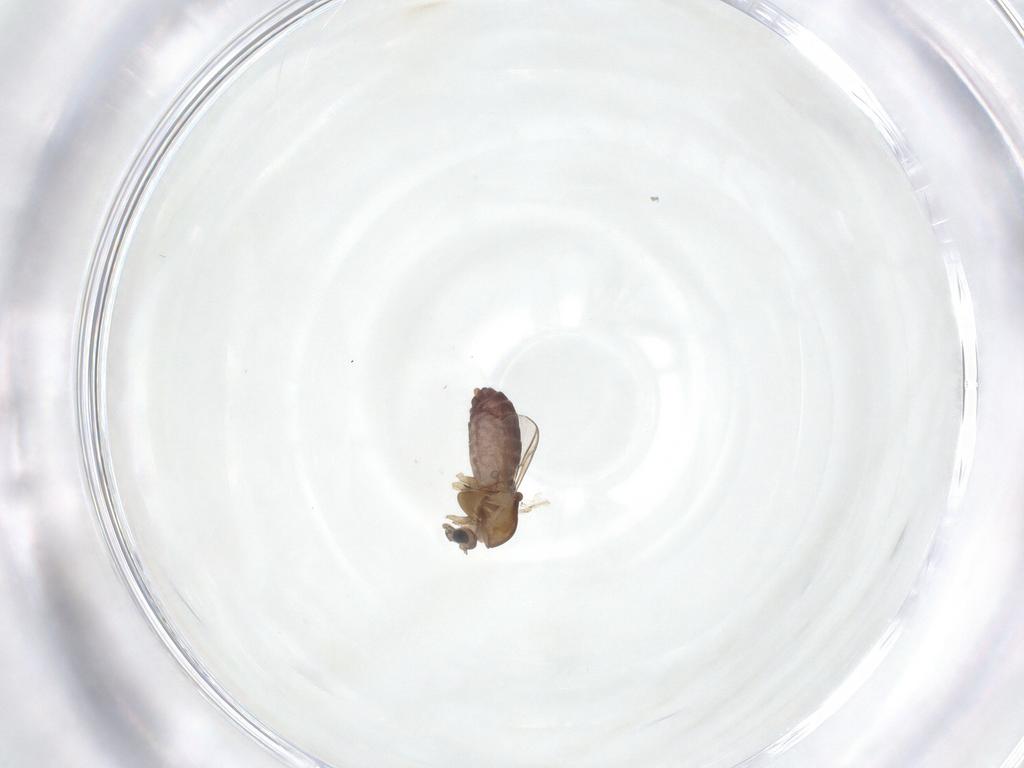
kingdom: Animalia
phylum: Arthropoda
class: Insecta
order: Diptera
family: Chironomidae
